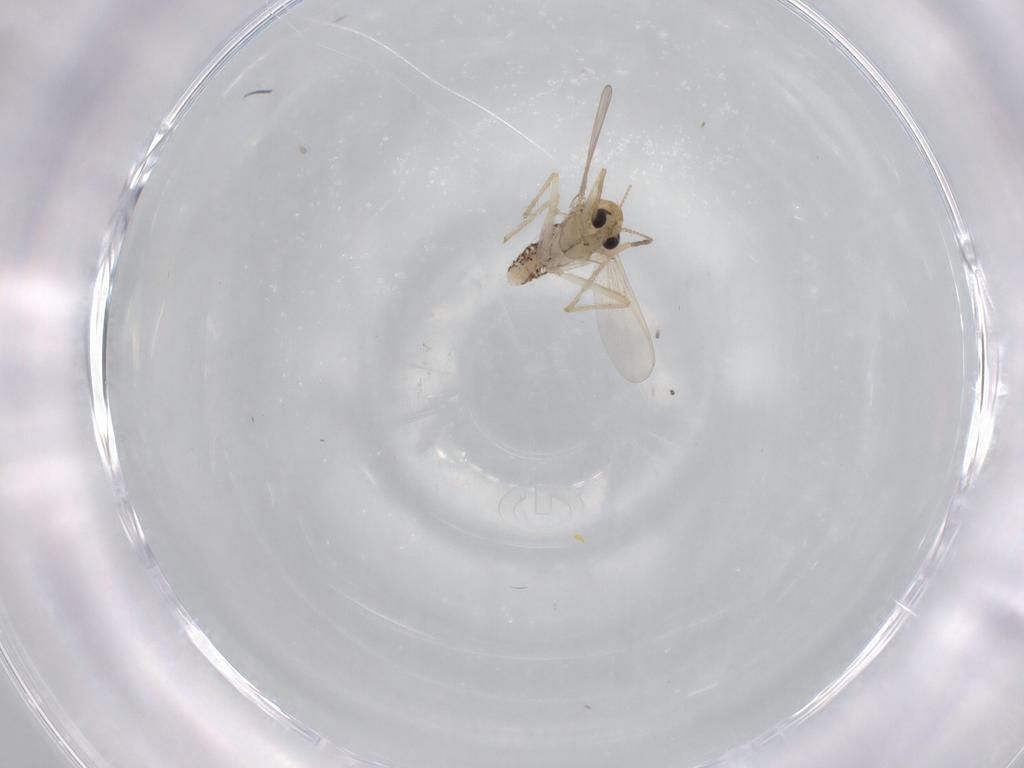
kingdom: Animalia
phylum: Arthropoda
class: Insecta
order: Diptera
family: Chironomidae
